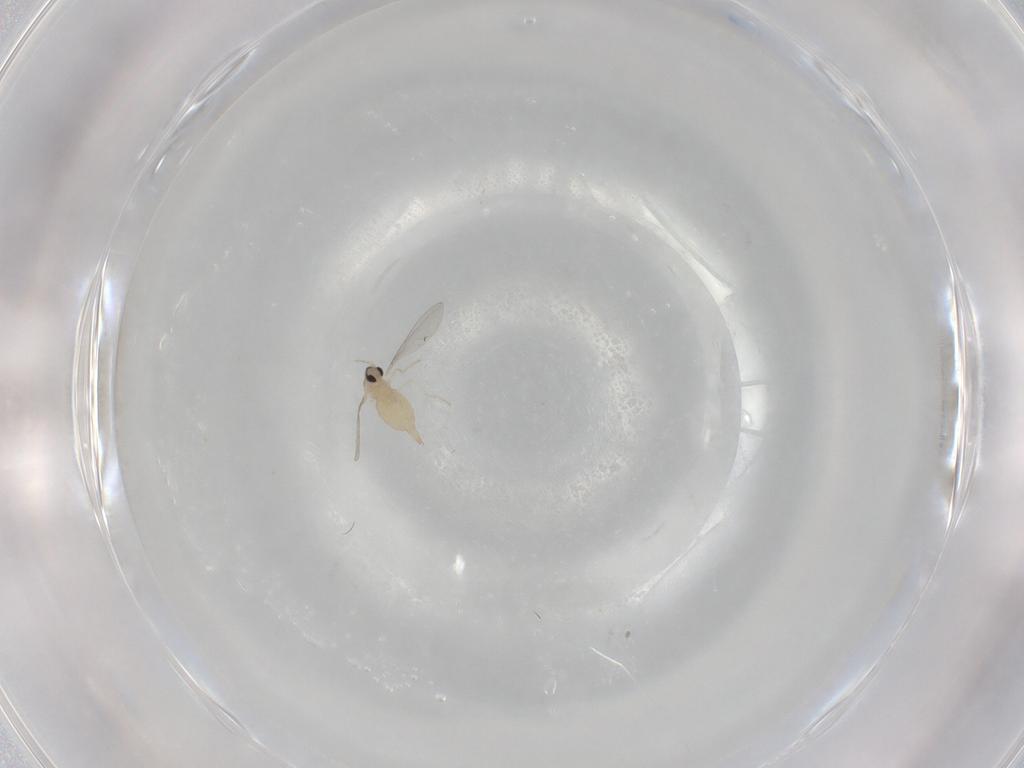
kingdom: Animalia
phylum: Arthropoda
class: Insecta
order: Diptera
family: Cecidomyiidae
